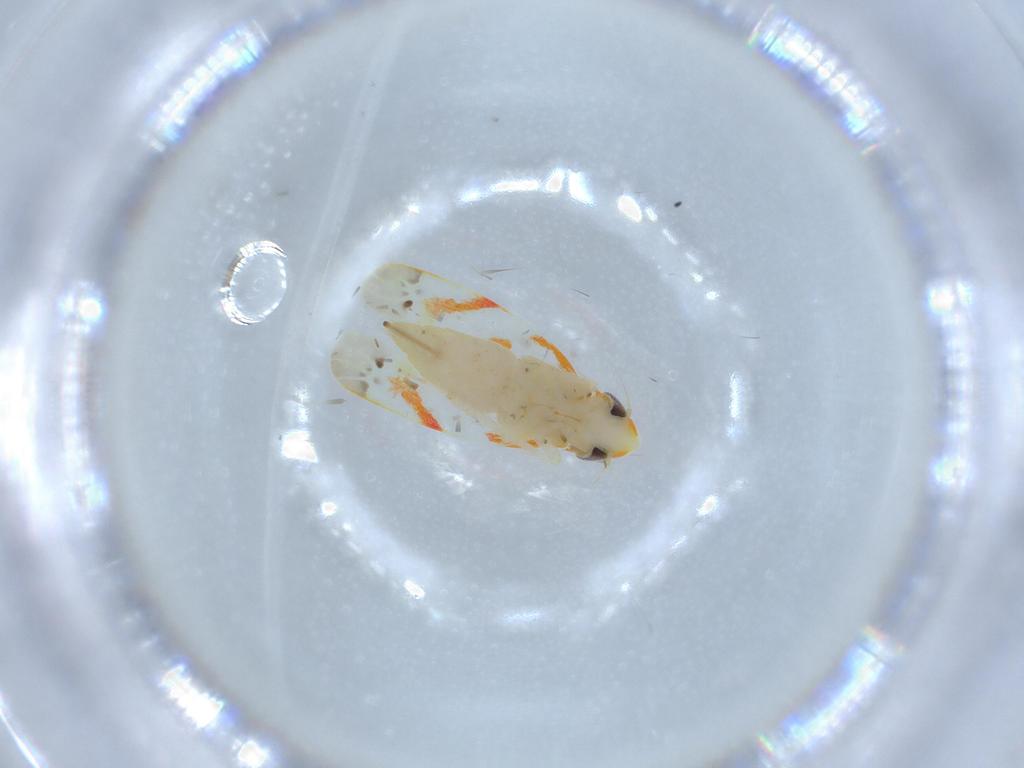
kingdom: Animalia
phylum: Arthropoda
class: Insecta
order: Hemiptera
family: Cicadellidae
